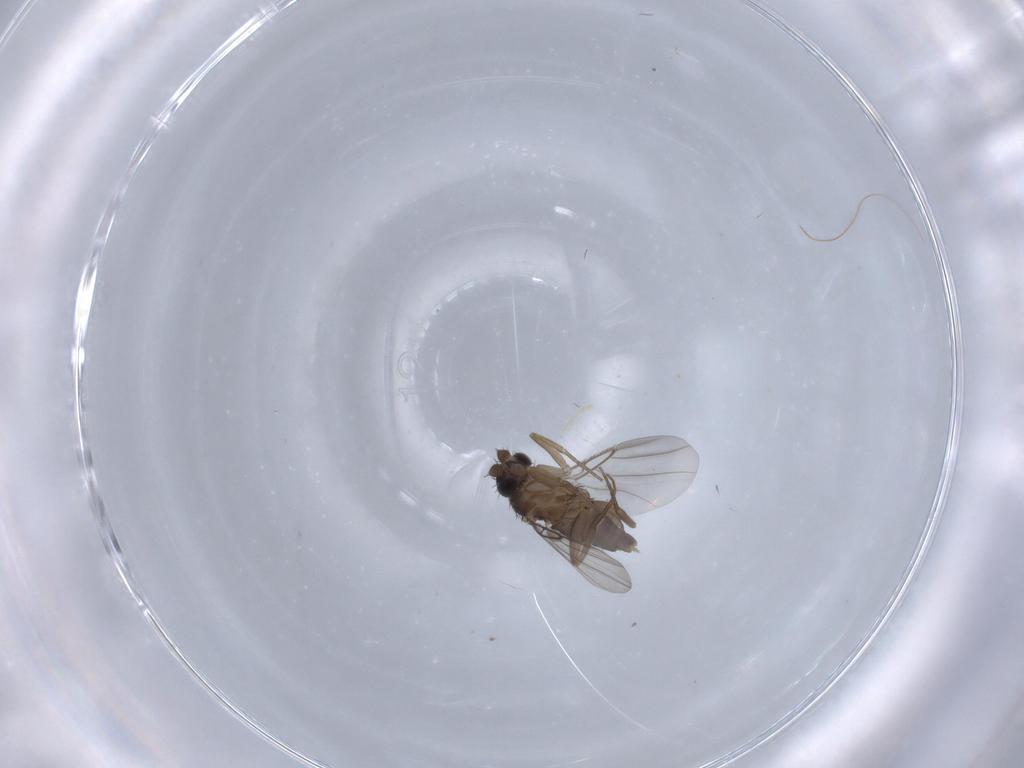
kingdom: Animalia
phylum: Arthropoda
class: Insecta
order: Diptera
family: Phoridae
